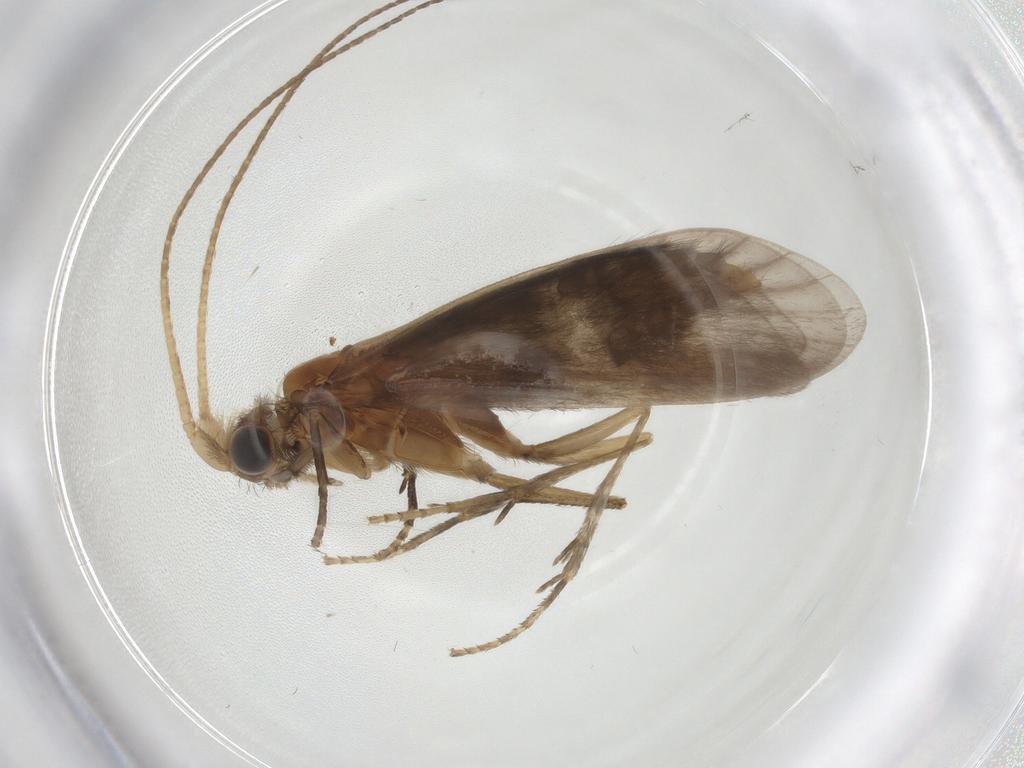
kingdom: Animalia
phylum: Arthropoda
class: Insecta
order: Trichoptera
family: Helicopsychidae
